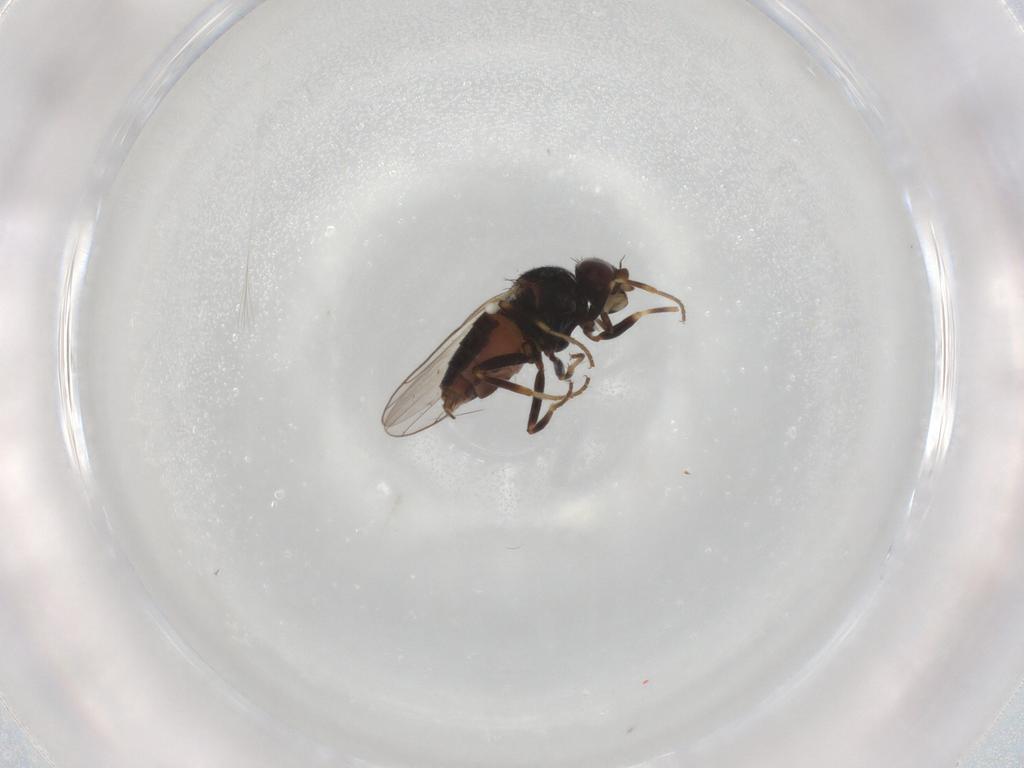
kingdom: Animalia
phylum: Arthropoda
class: Insecta
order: Diptera
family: Chloropidae
